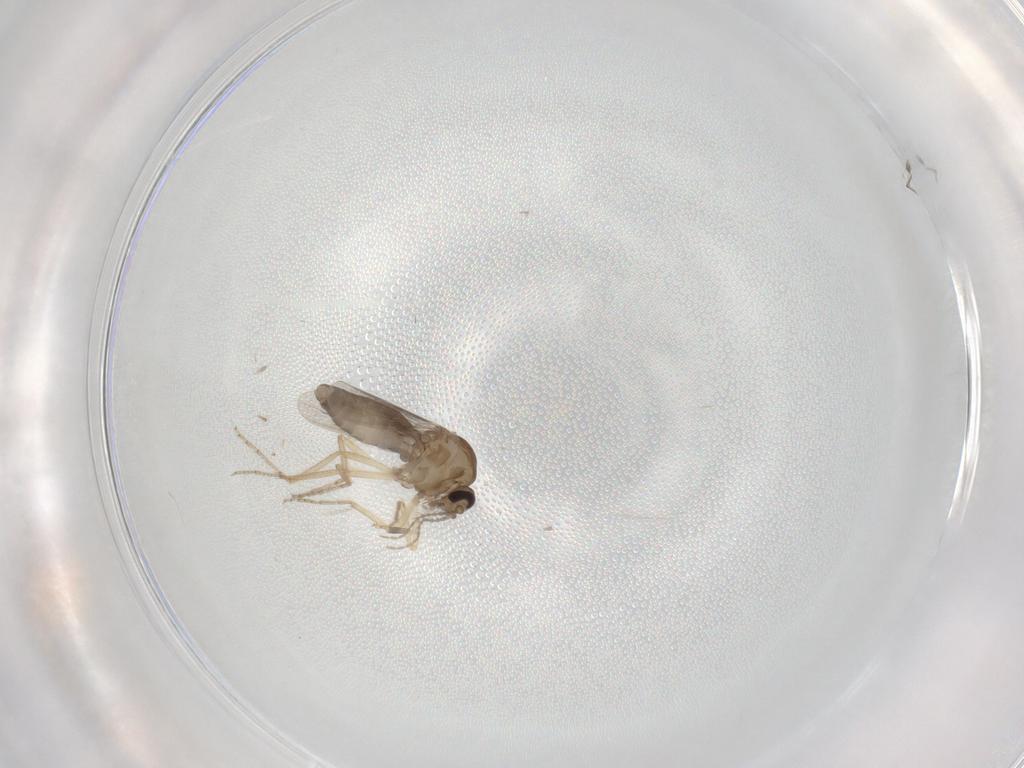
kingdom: Animalia
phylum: Arthropoda
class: Insecta
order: Diptera
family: Ceratopogonidae
